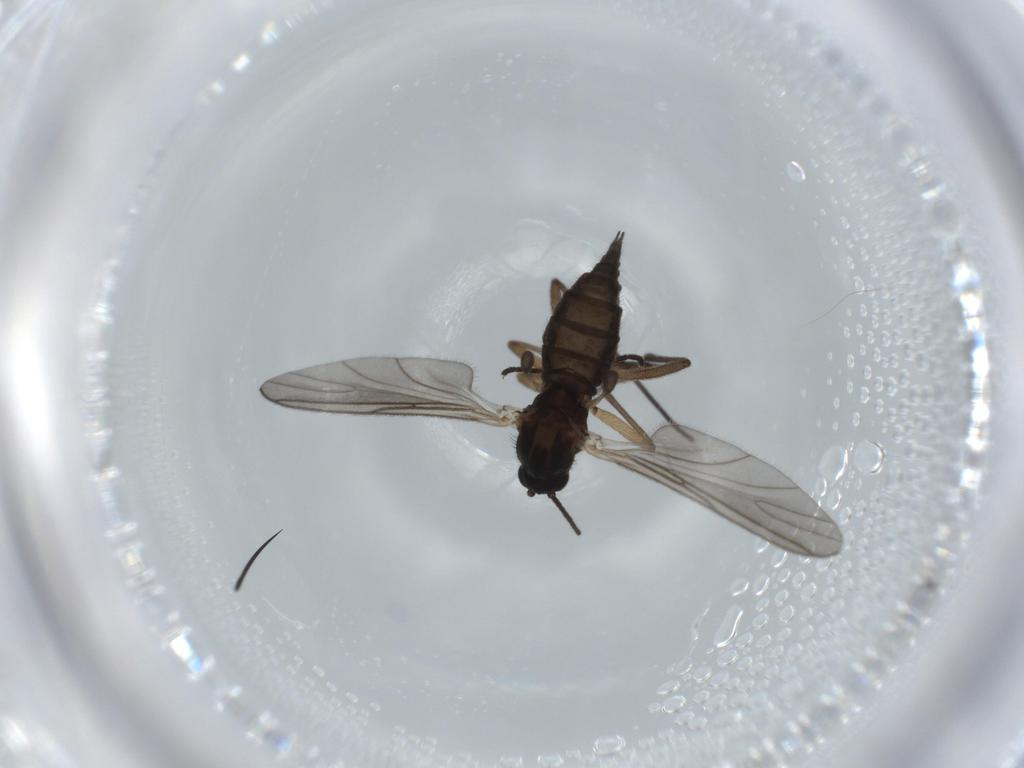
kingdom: Animalia
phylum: Arthropoda
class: Insecta
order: Diptera
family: Sciaridae
